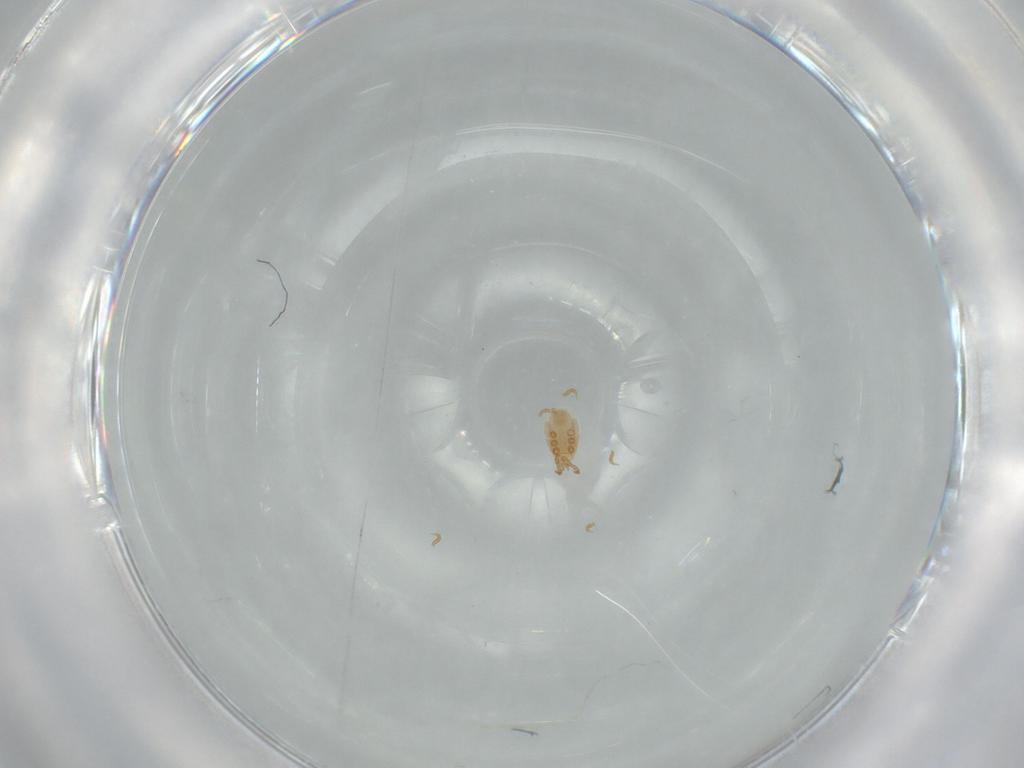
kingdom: Animalia
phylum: Arthropoda
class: Arachnida
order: Mesostigmata
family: Dinychidae
